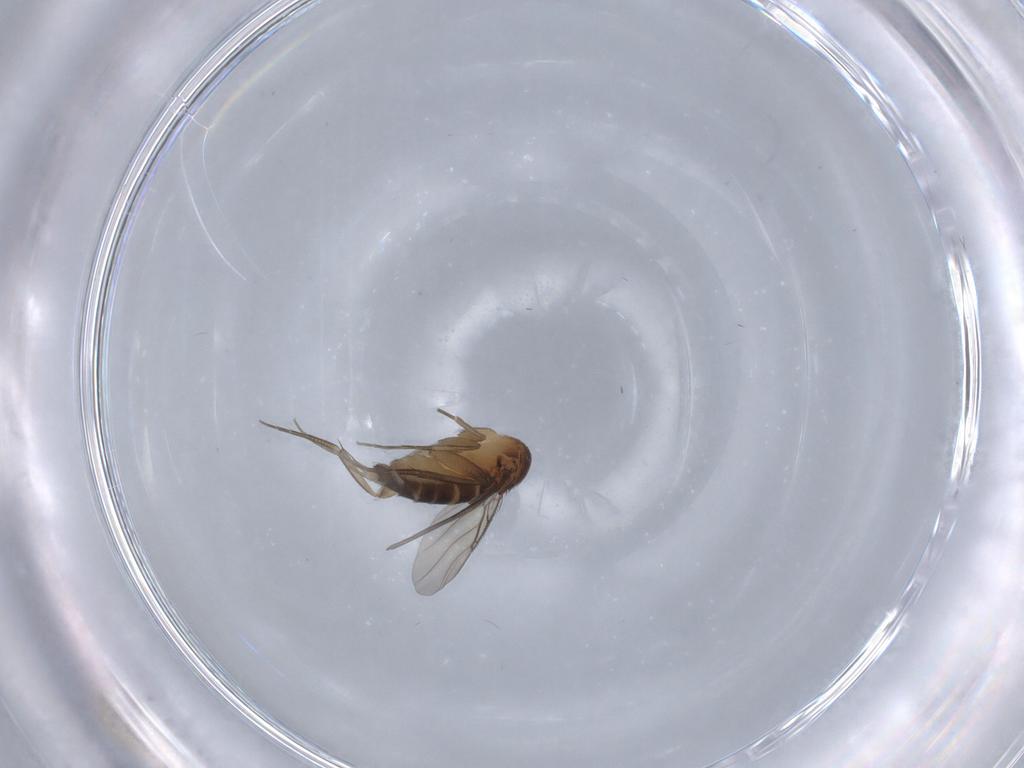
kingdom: Animalia
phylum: Arthropoda
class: Insecta
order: Diptera
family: Phoridae
